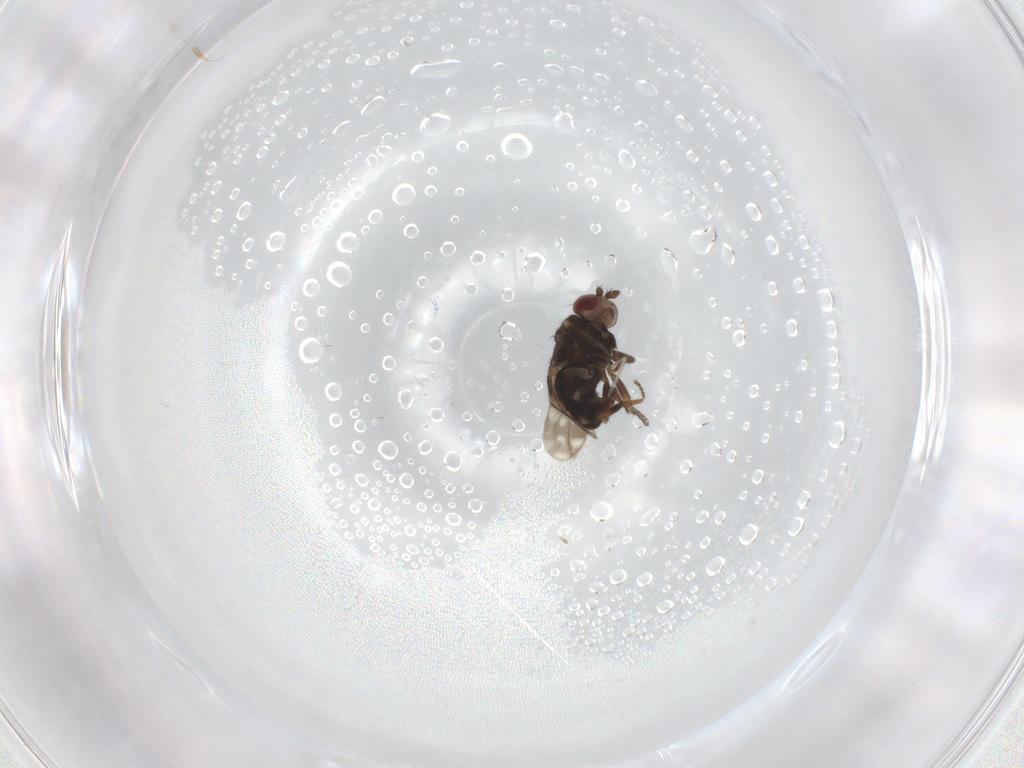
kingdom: Animalia
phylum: Arthropoda
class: Insecta
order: Diptera
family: Sphaeroceridae
